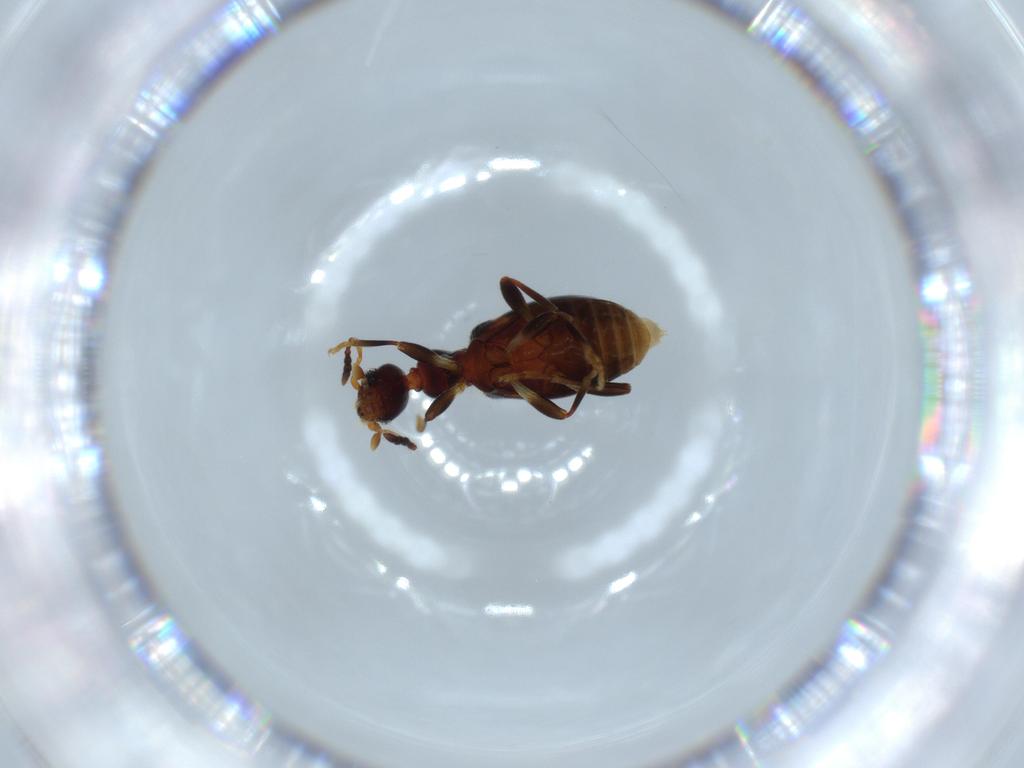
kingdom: Animalia
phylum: Arthropoda
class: Insecta
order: Coleoptera
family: Anthicidae
